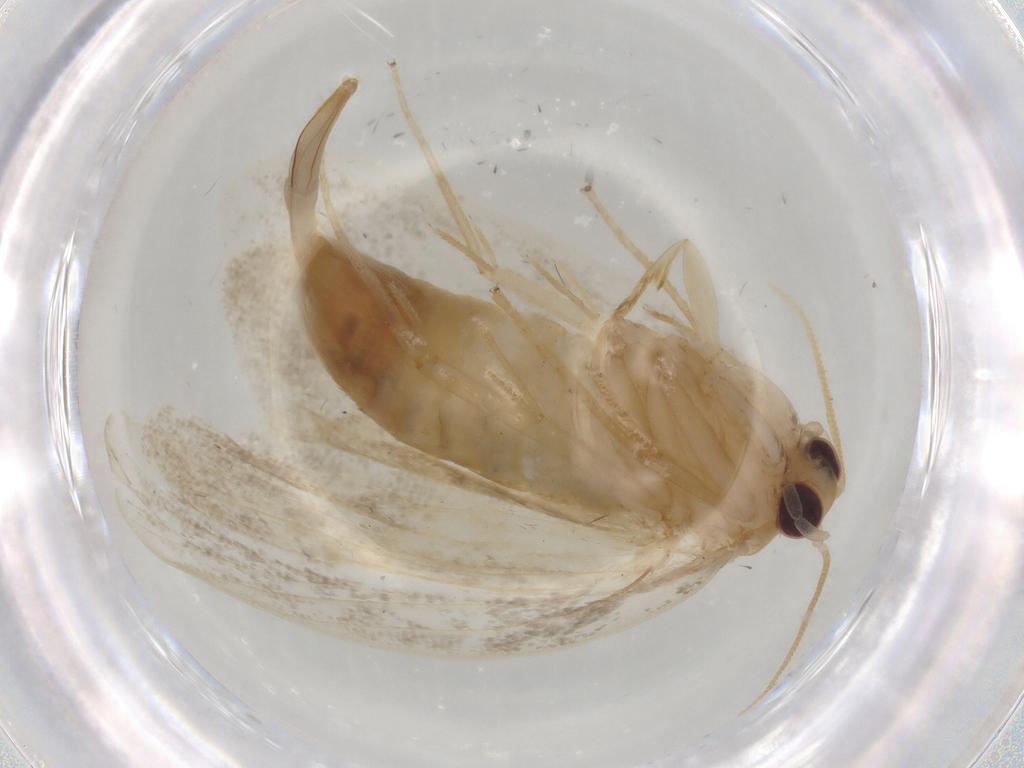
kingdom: Animalia
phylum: Arthropoda
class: Insecta
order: Lepidoptera
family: Psychidae
